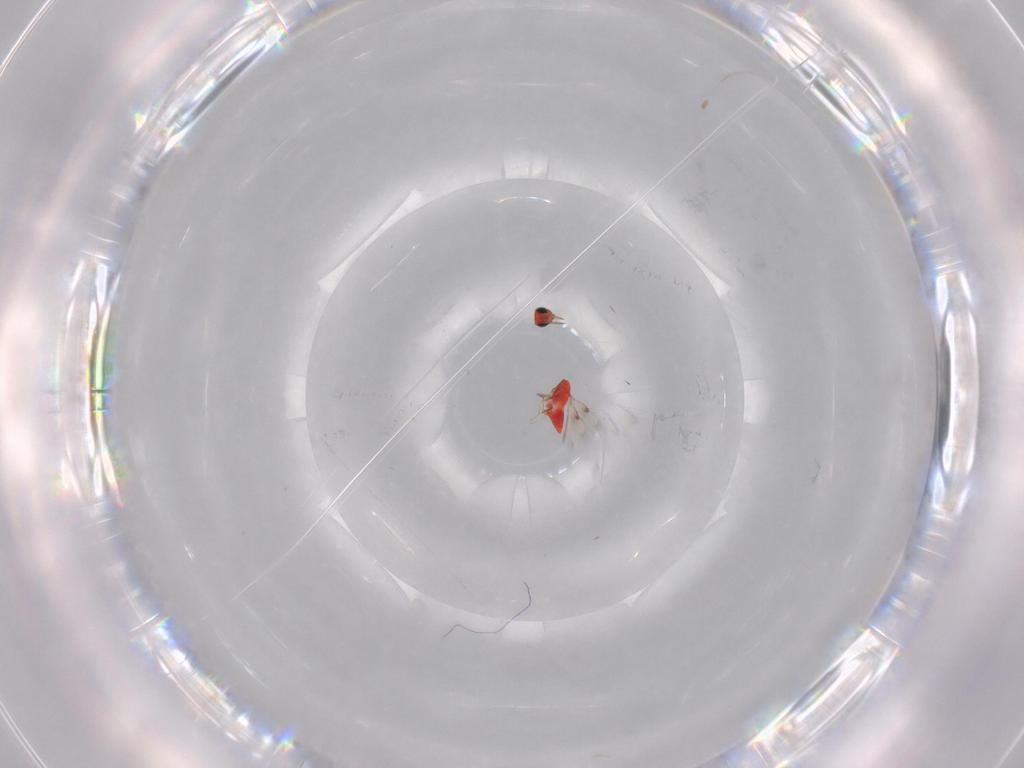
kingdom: Animalia
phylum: Arthropoda
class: Insecta
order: Hymenoptera
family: Trichogrammatidae
